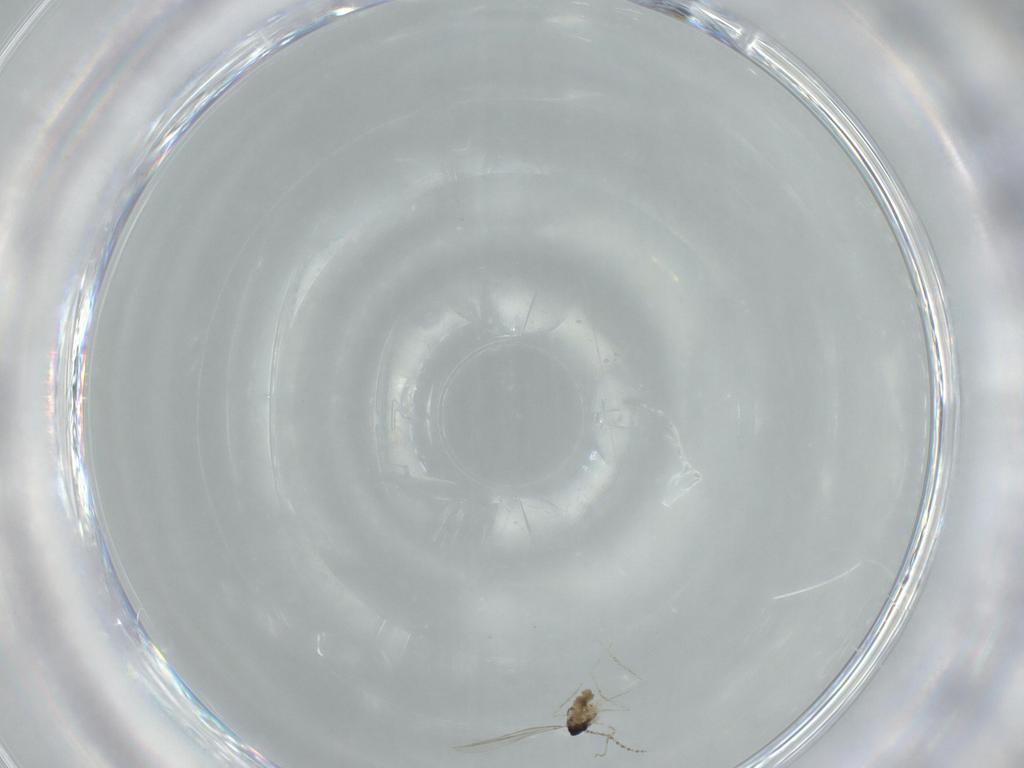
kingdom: Animalia
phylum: Arthropoda
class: Insecta
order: Diptera
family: Cecidomyiidae
